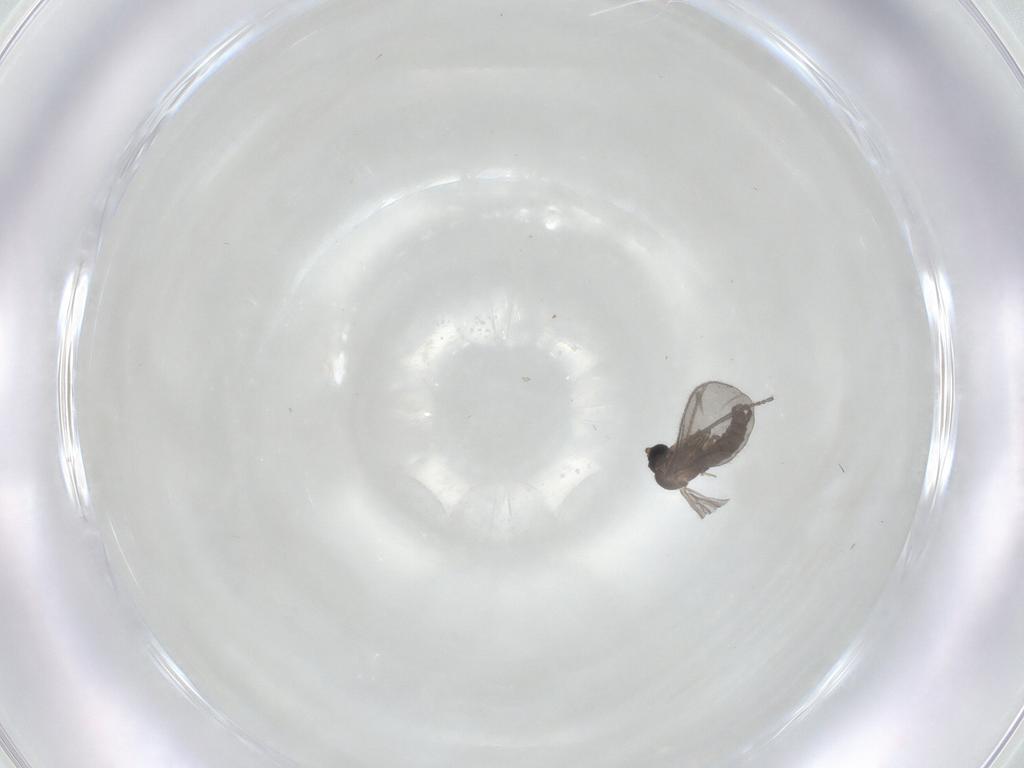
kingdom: Animalia
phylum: Arthropoda
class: Insecta
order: Diptera
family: Sciaridae
